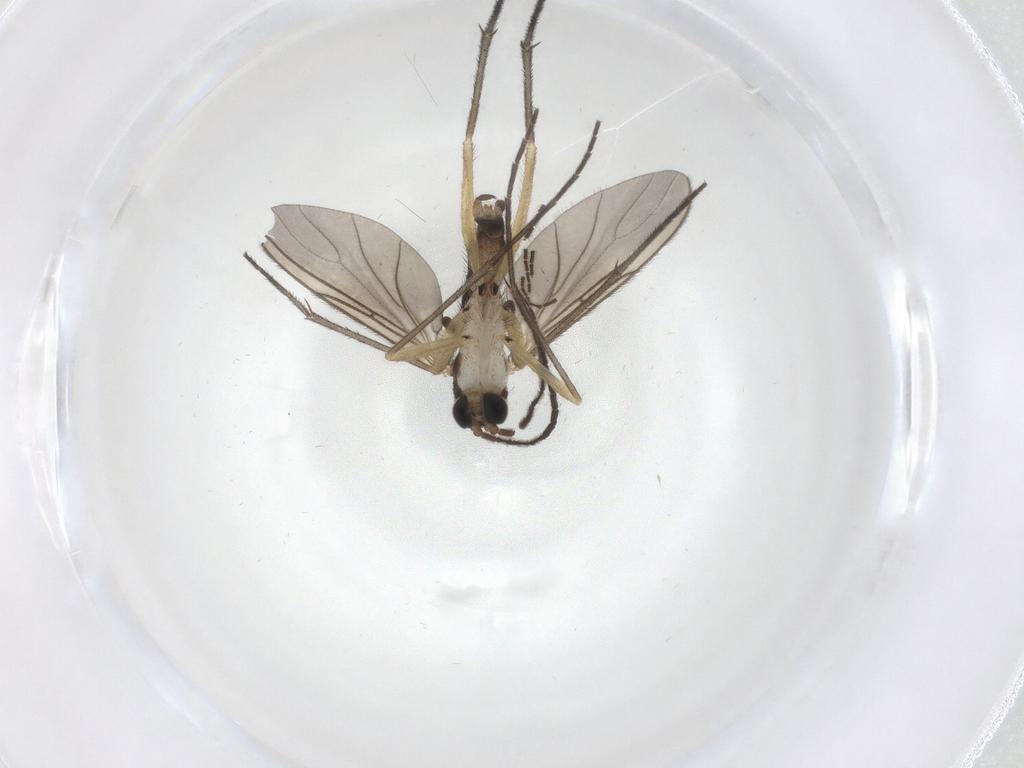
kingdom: Animalia
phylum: Arthropoda
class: Insecta
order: Diptera
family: Sciaridae
